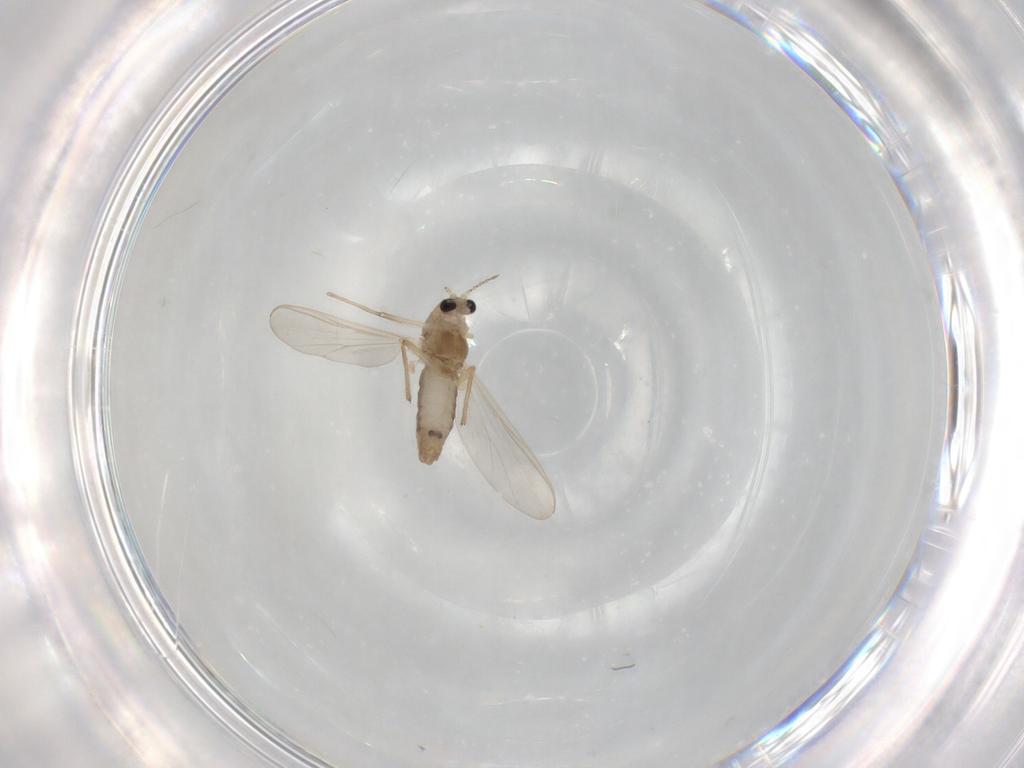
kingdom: Animalia
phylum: Arthropoda
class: Insecta
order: Diptera
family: Chironomidae
